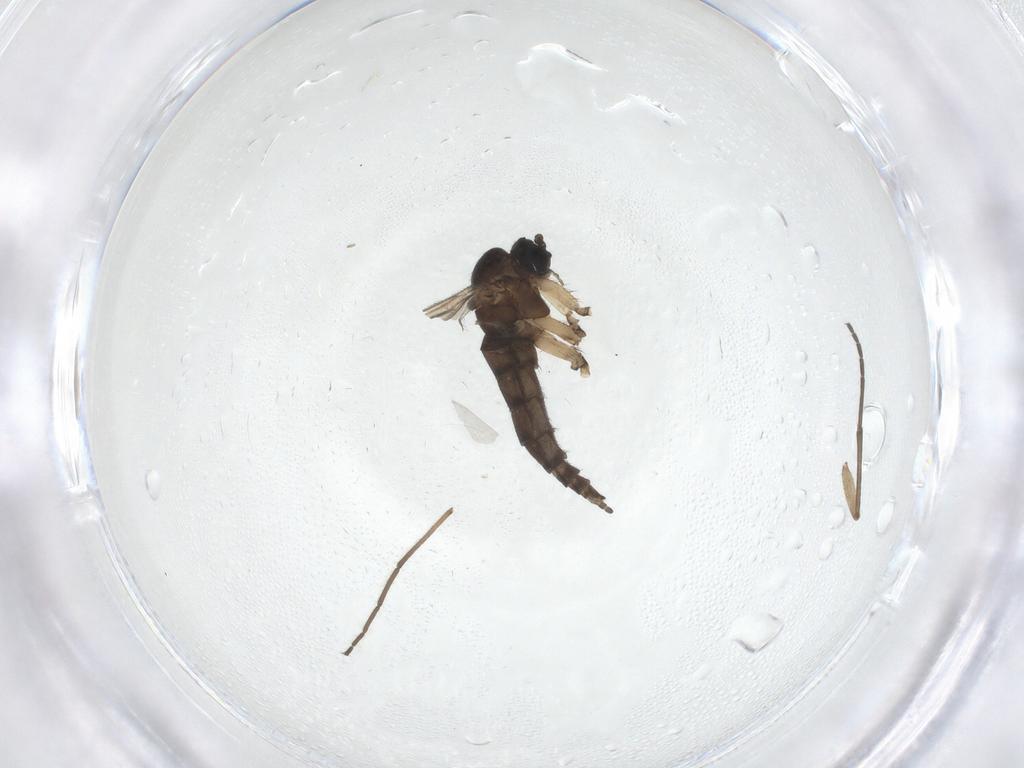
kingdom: Animalia
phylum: Arthropoda
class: Insecta
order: Diptera
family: Sciaridae
